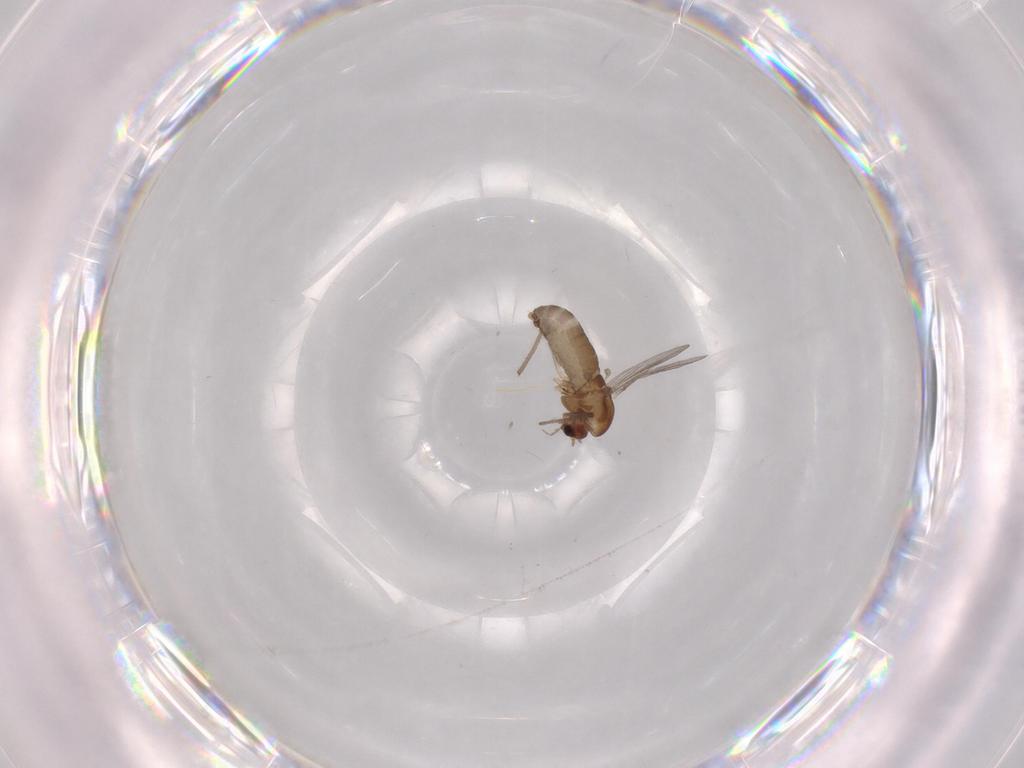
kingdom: Animalia
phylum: Arthropoda
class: Insecta
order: Diptera
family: Chironomidae
